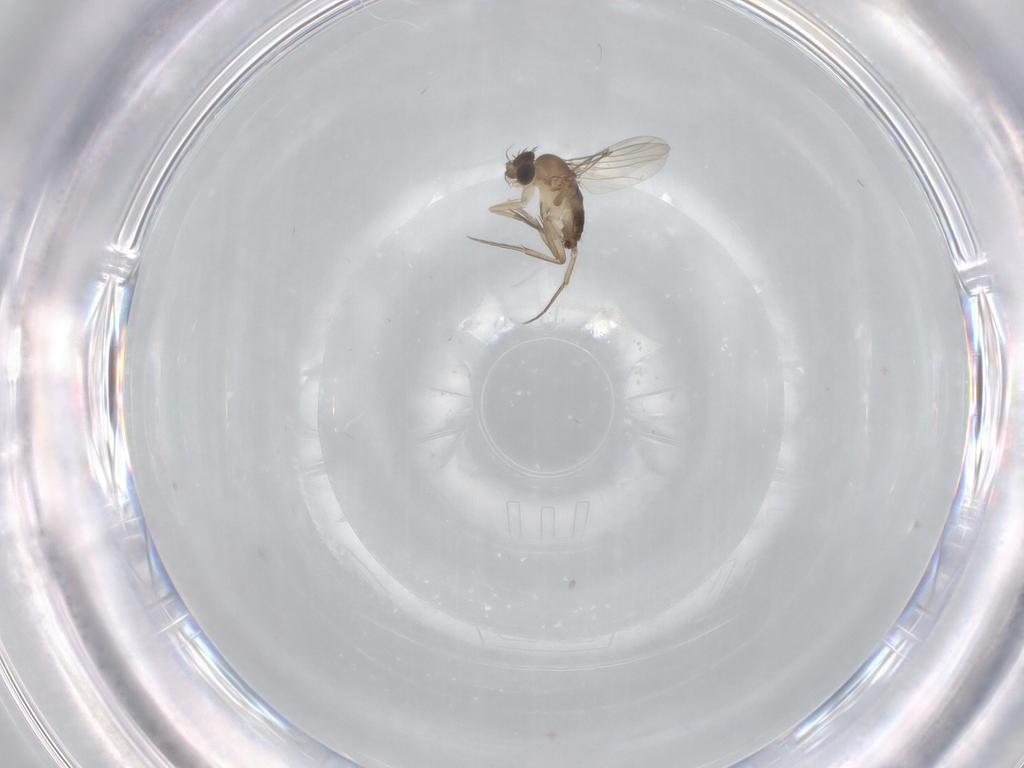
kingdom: Animalia
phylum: Arthropoda
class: Insecta
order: Diptera
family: Phoridae
